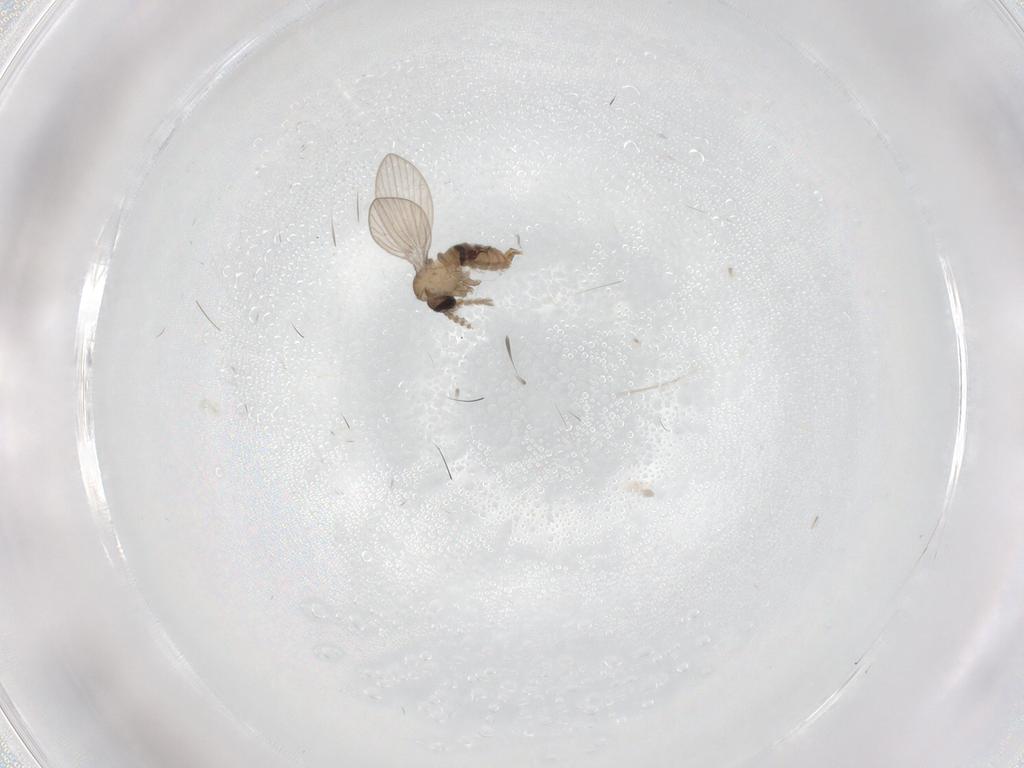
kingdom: Animalia
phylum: Arthropoda
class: Insecta
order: Diptera
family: Psychodidae
